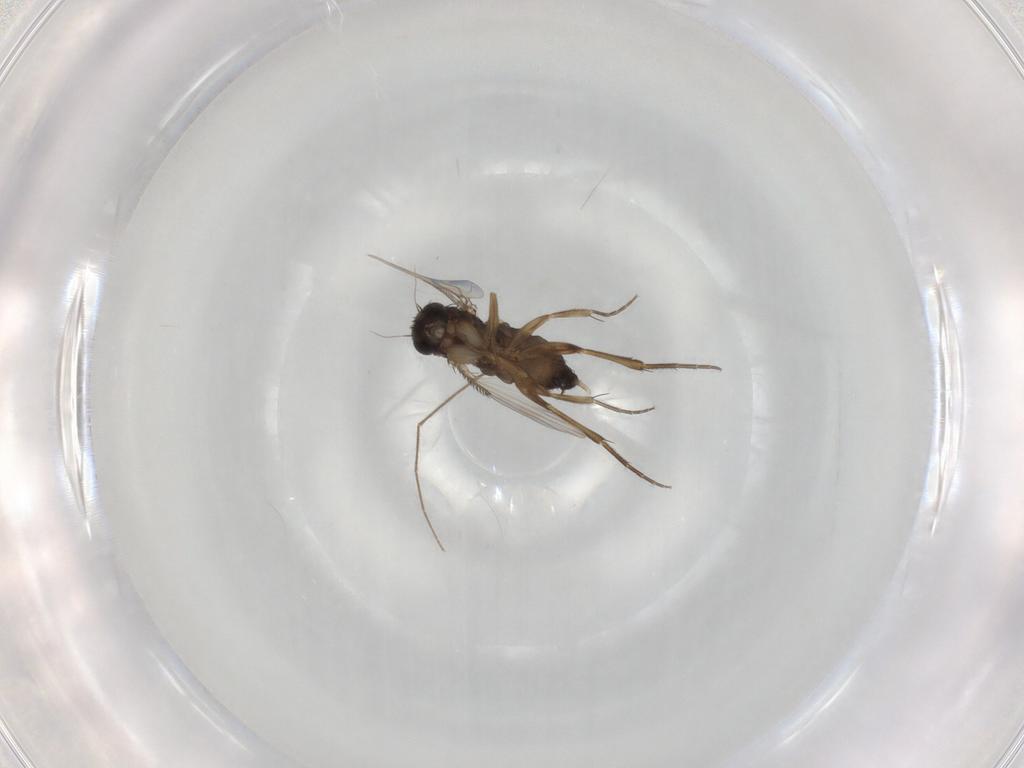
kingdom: Animalia
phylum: Arthropoda
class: Insecta
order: Diptera
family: Phoridae
